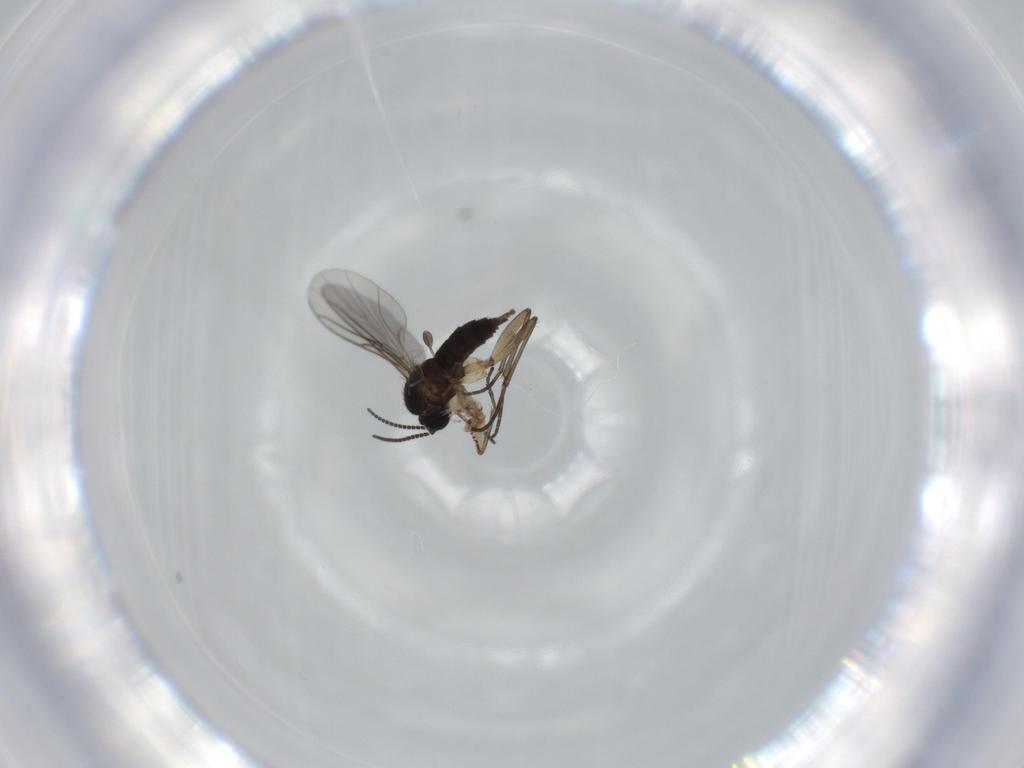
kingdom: Animalia
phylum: Arthropoda
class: Insecta
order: Diptera
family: Sciaridae
